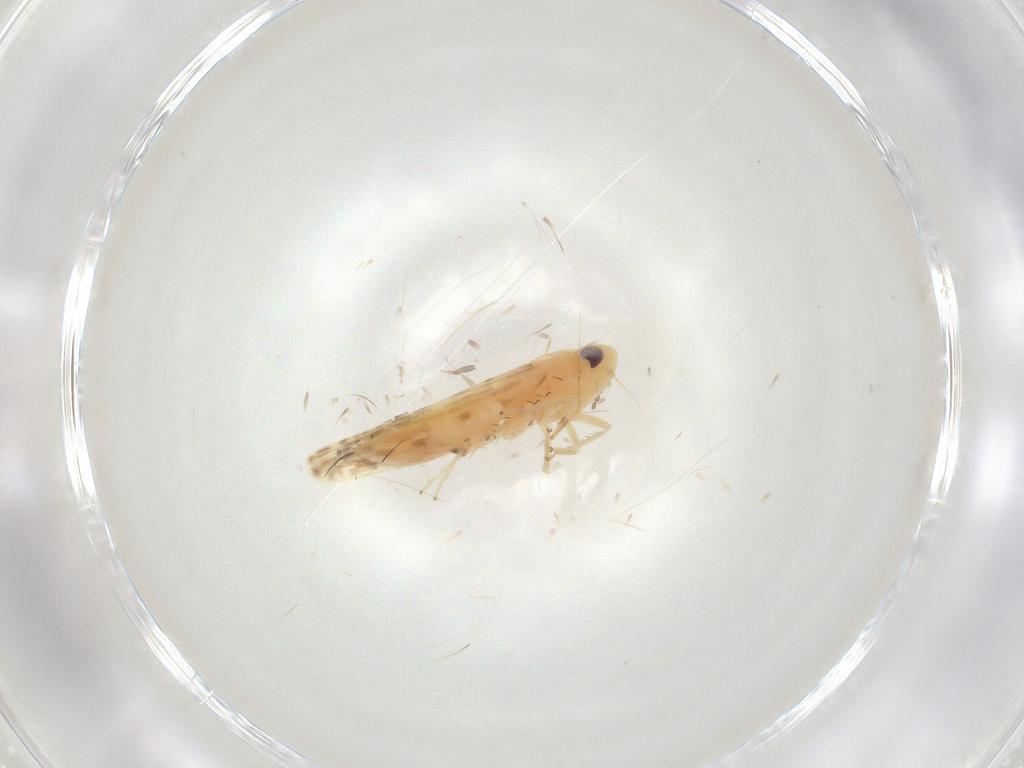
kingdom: Animalia
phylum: Arthropoda
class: Insecta
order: Hemiptera
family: Cicadellidae
